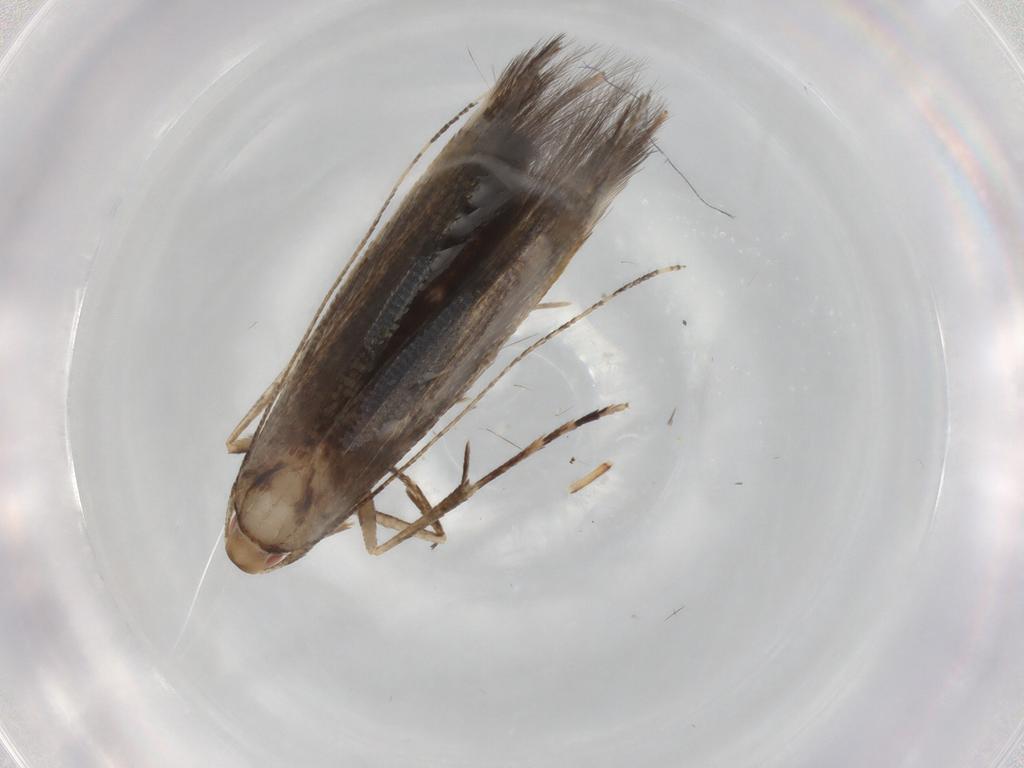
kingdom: Animalia
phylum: Arthropoda
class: Insecta
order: Lepidoptera
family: Cosmopterigidae
